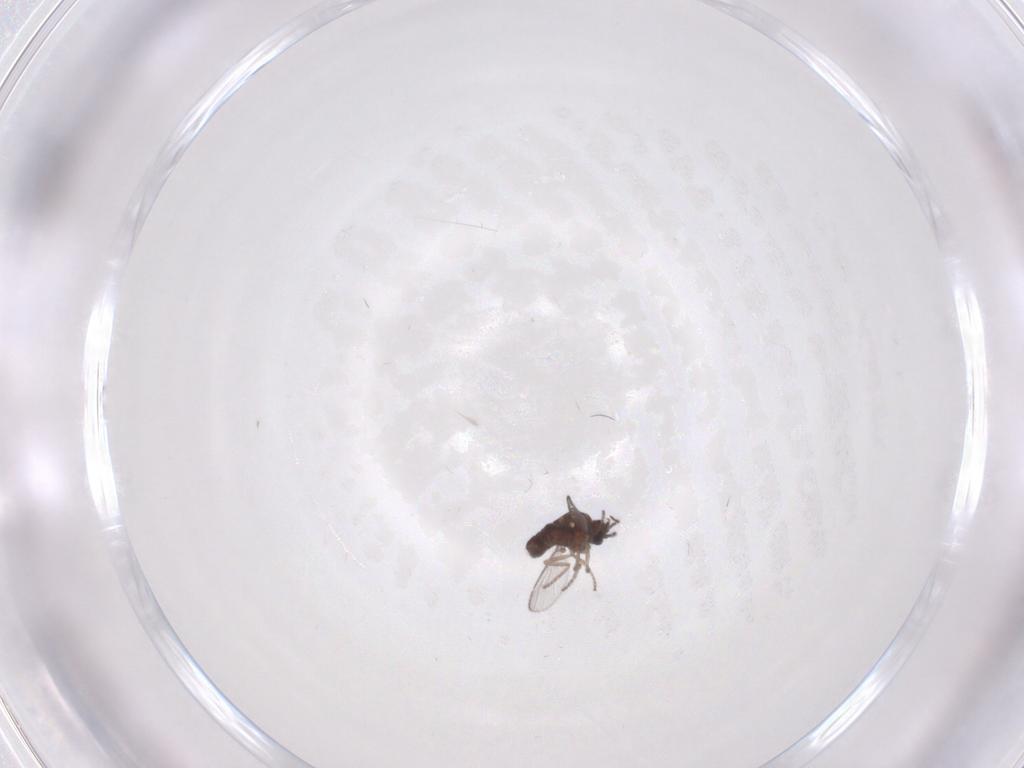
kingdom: Animalia
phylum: Arthropoda
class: Insecta
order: Diptera
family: Ceratopogonidae
